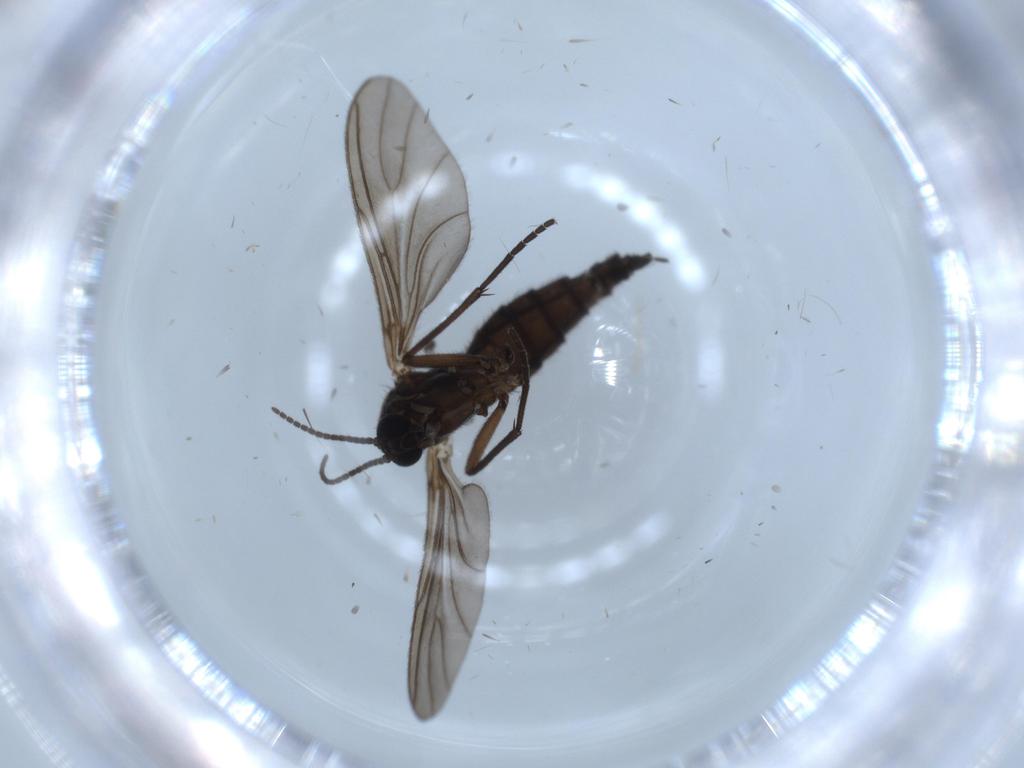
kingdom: Animalia
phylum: Arthropoda
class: Insecta
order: Diptera
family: Sciaridae
